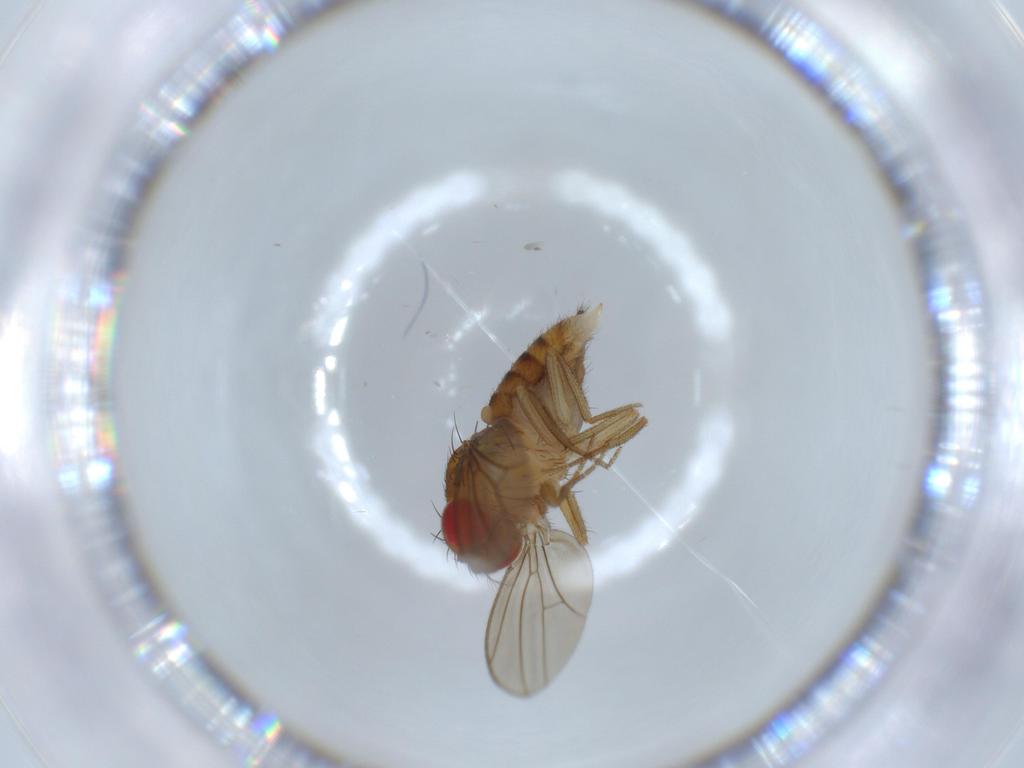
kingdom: Animalia
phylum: Arthropoda
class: Insecta
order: Diptera
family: Drosophilidae
